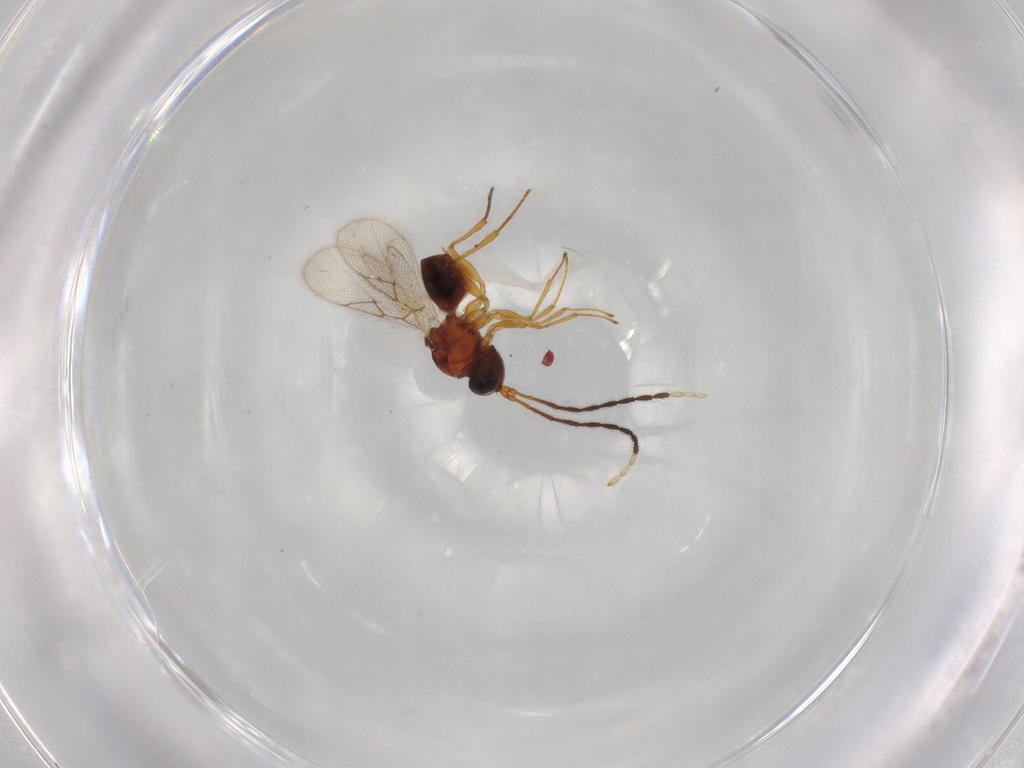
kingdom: Animalia
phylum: Arthropoda
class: Insecta
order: Hymenoptera
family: Figitidae
